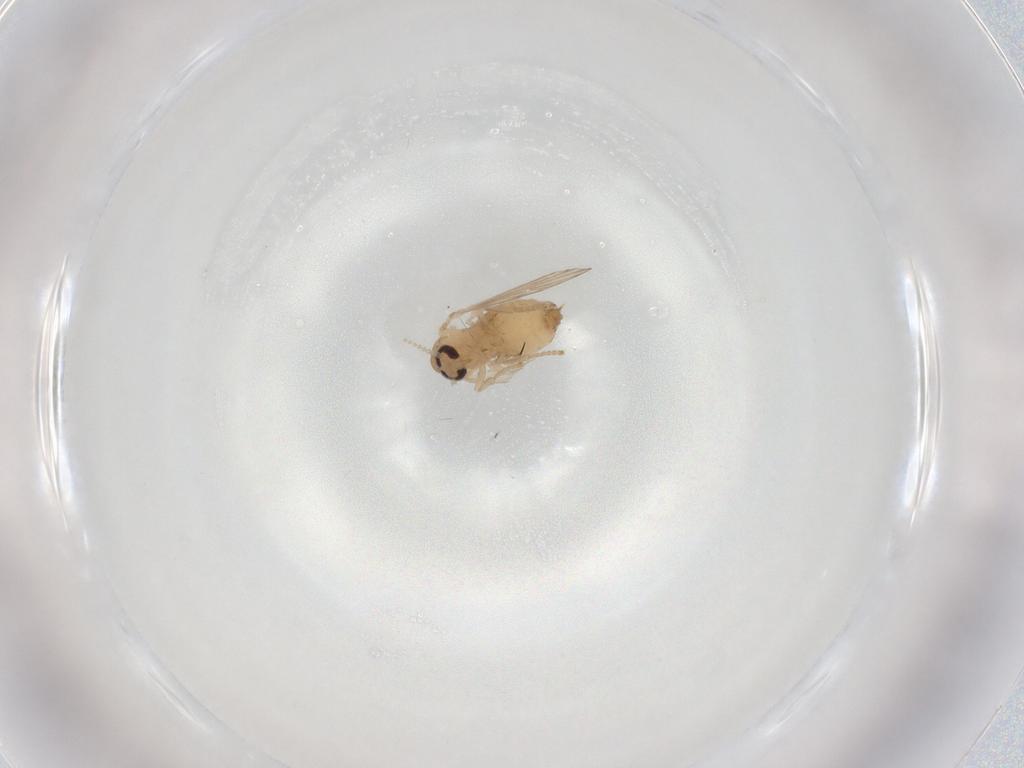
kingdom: Animalia
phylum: Arthropoda
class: Insecta
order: Diptera
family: Psychodidae
